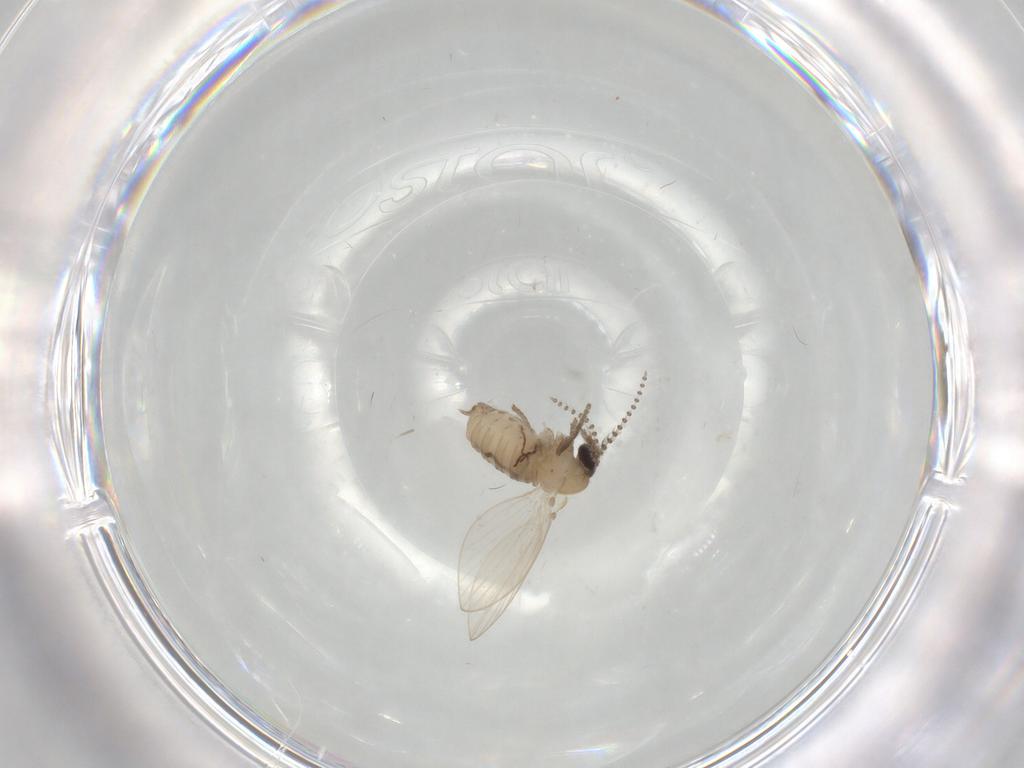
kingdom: Animalia
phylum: Arthropoda
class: Insecta
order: Diptera
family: Psychodidae
